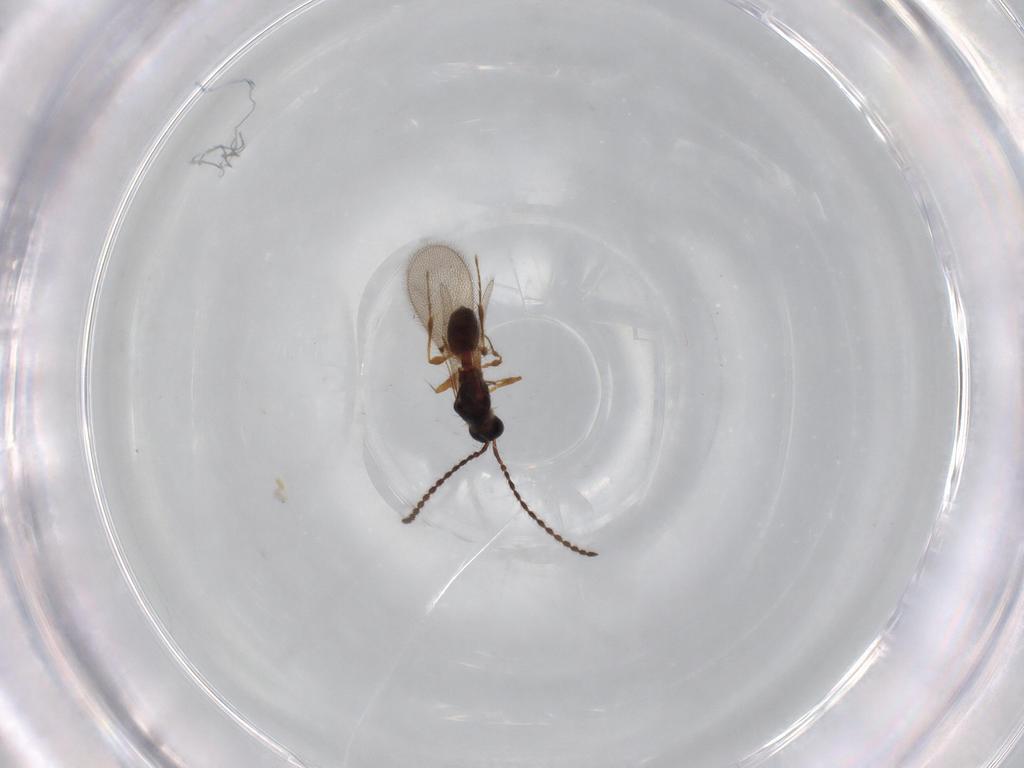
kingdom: Animalia
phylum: Arthropoda
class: Insecta
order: Hymenoptera
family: Diapriidae
